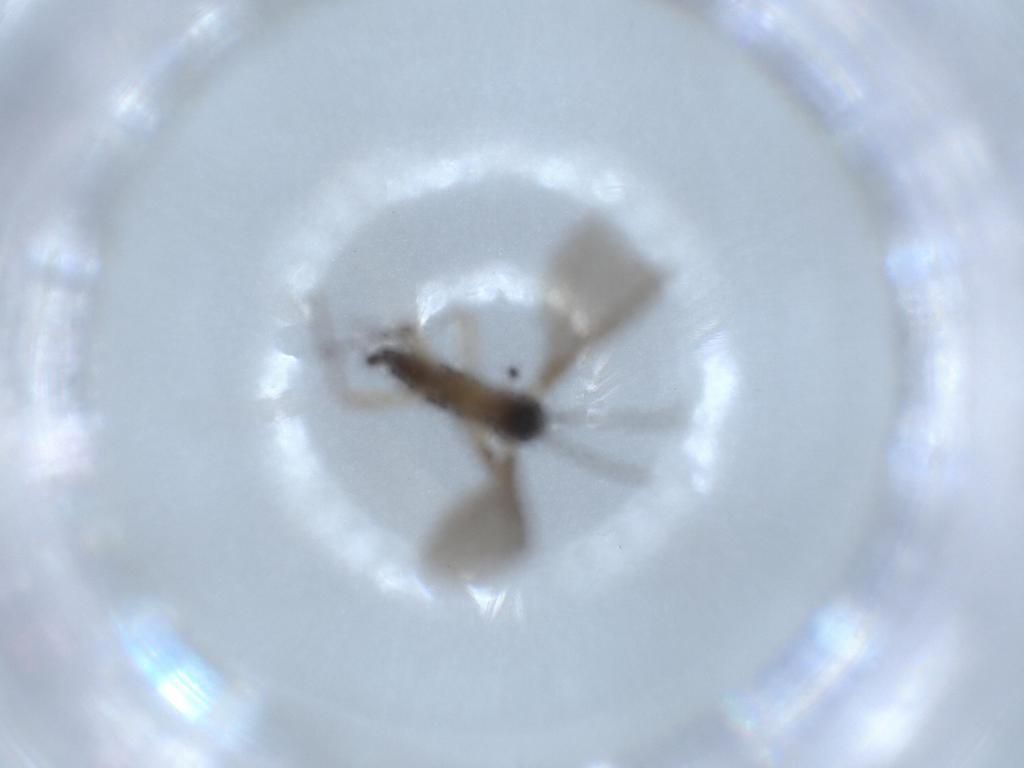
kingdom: Animalia
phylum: Arthropoda
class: Insecta
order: Diptera
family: Sciaridae
